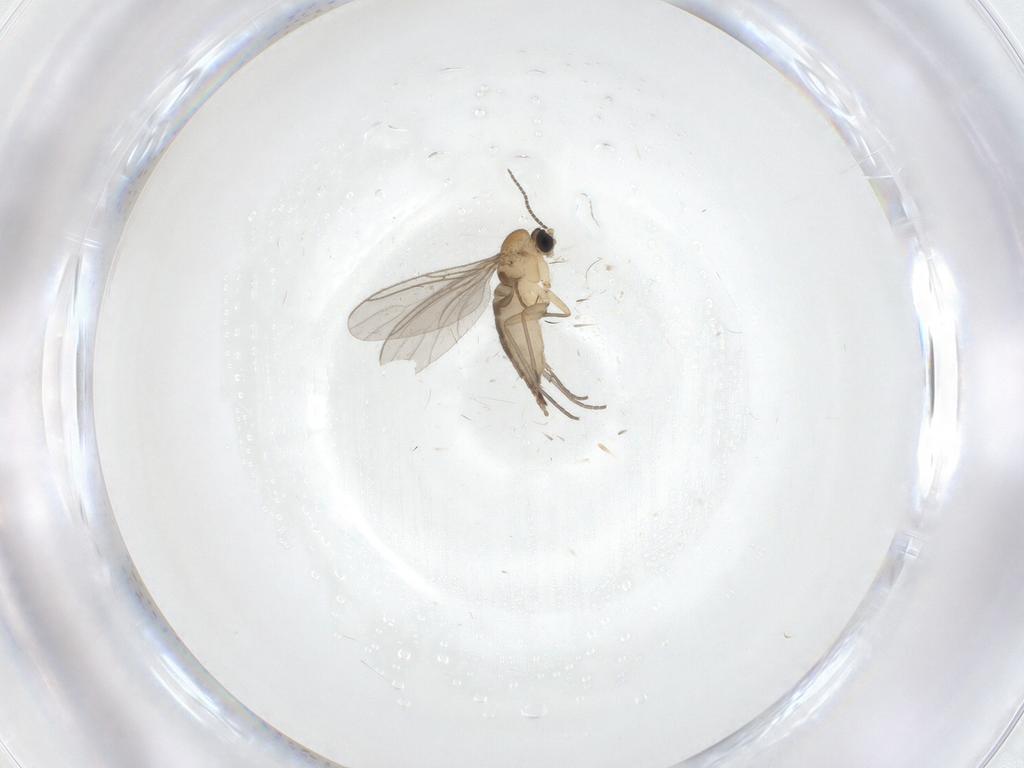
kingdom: Animalia
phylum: Arthropoda
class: Insecta
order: Diptera
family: Sciaridae
